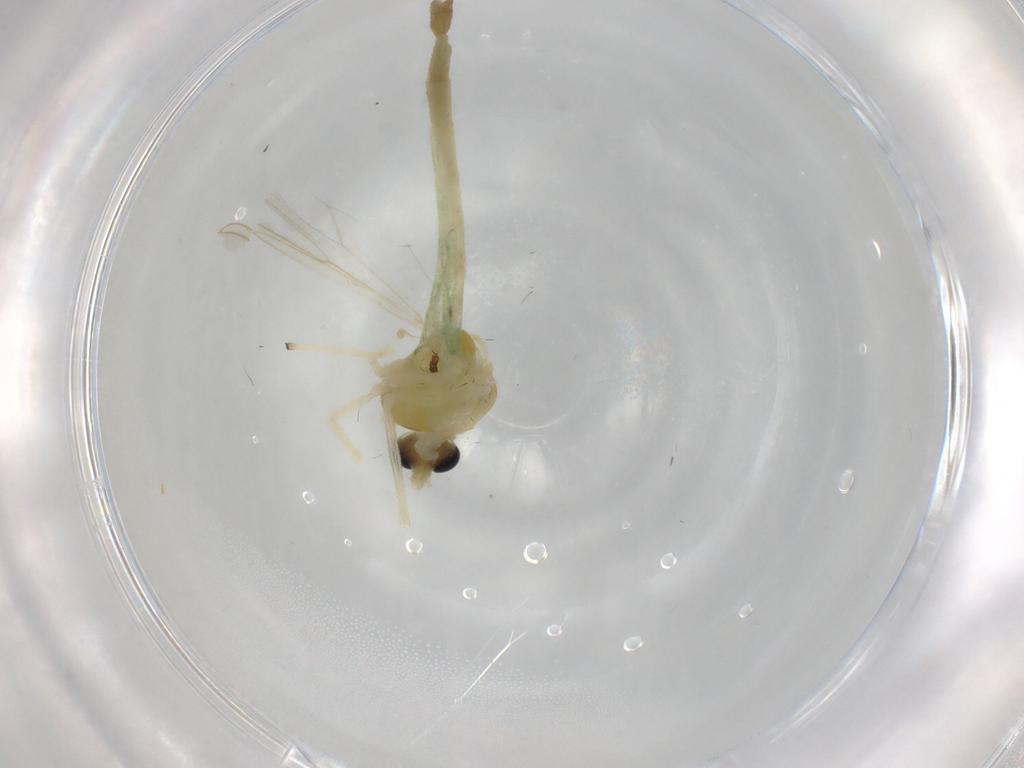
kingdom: Animalia
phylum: Arthropoda
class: Insecta
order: Diptera
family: Chironomidae
